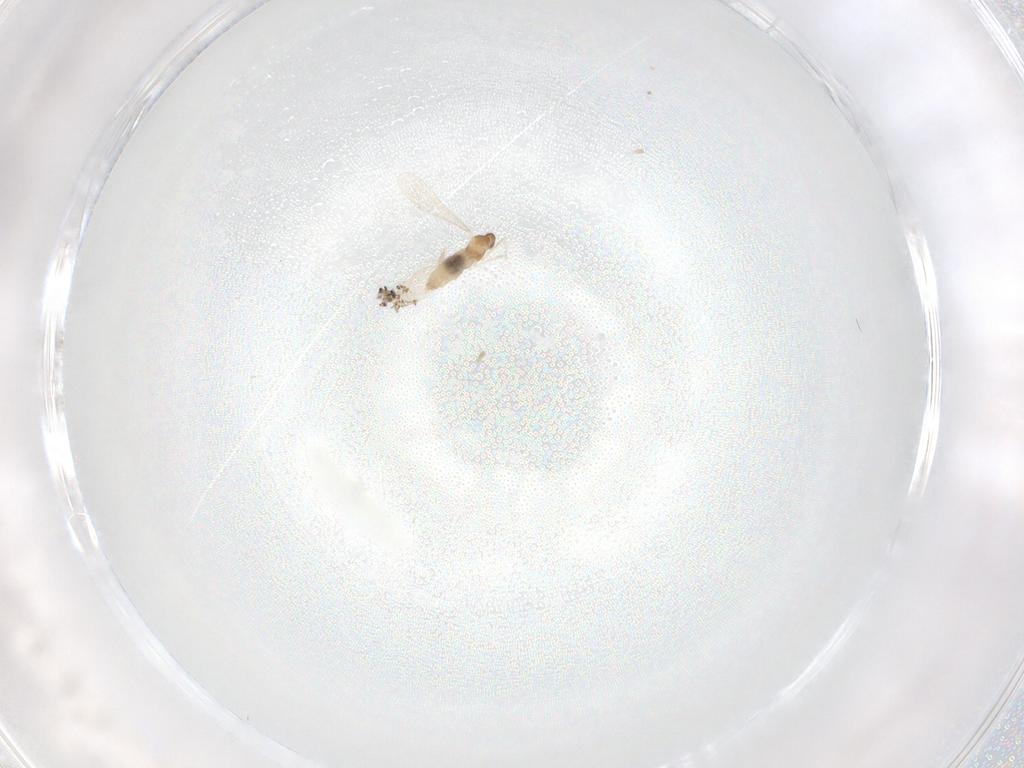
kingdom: Animalia
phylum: Arthropoda
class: Insecta
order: Diptera
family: Cecidomyiidae
